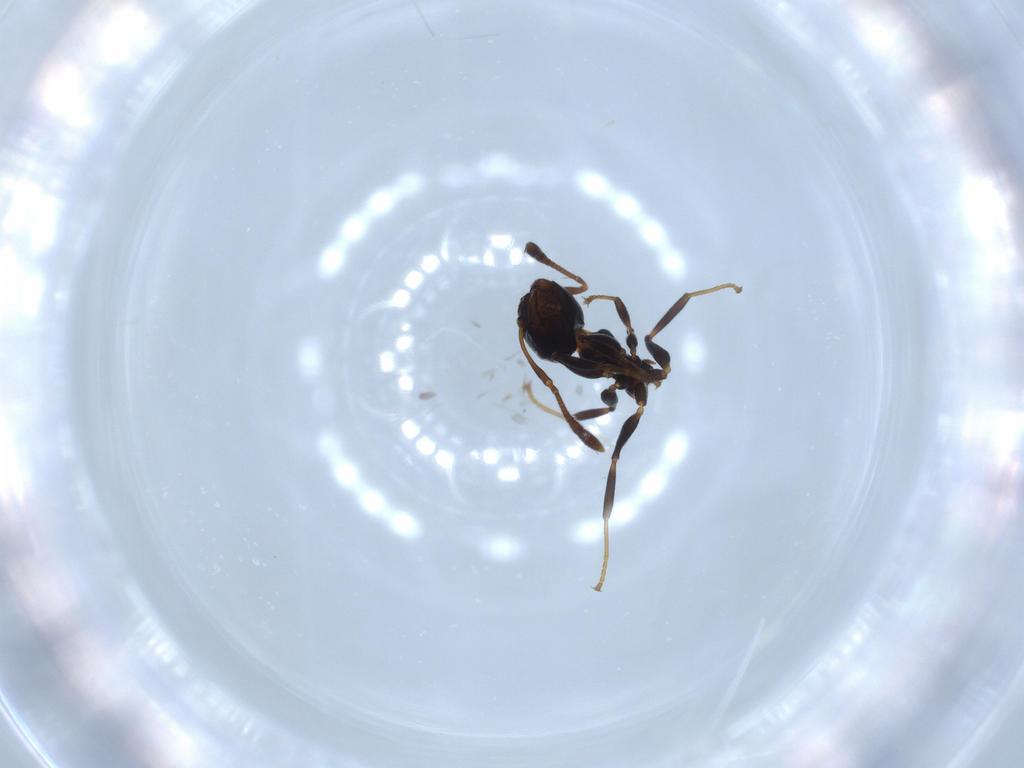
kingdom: Animalia
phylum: Arthropoda
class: Insecta
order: Hymenoptera
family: Formicidae
